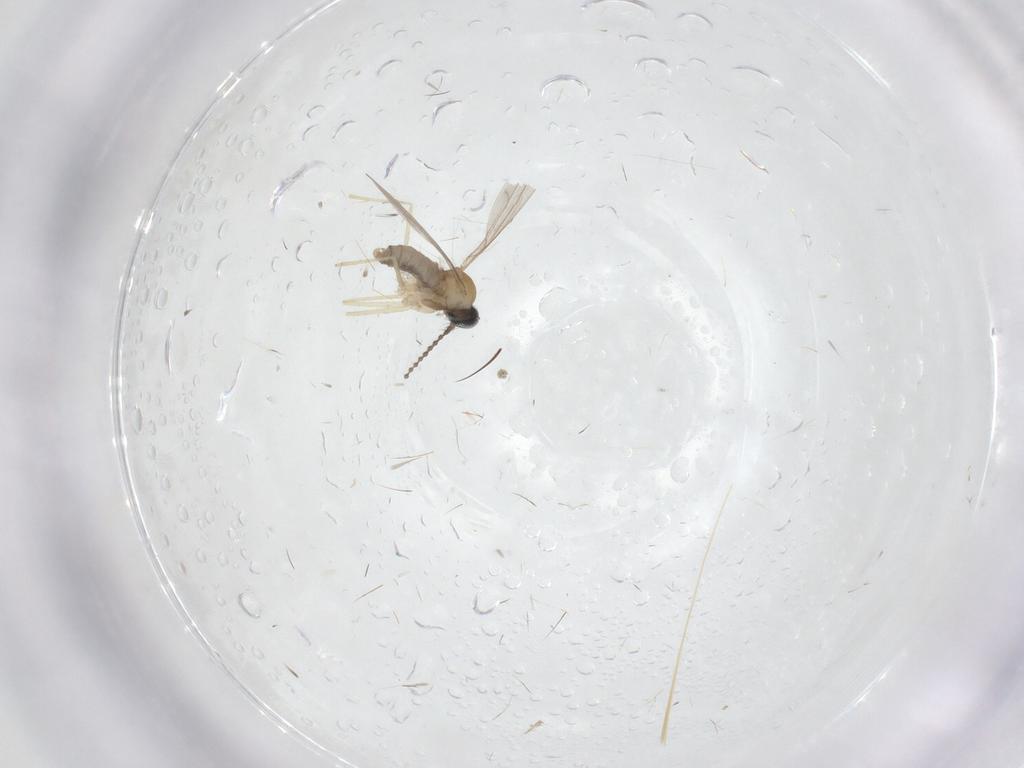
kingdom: Animalia
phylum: Arthropoda
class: Insecta
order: Diptera
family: Cecidomyiidae
